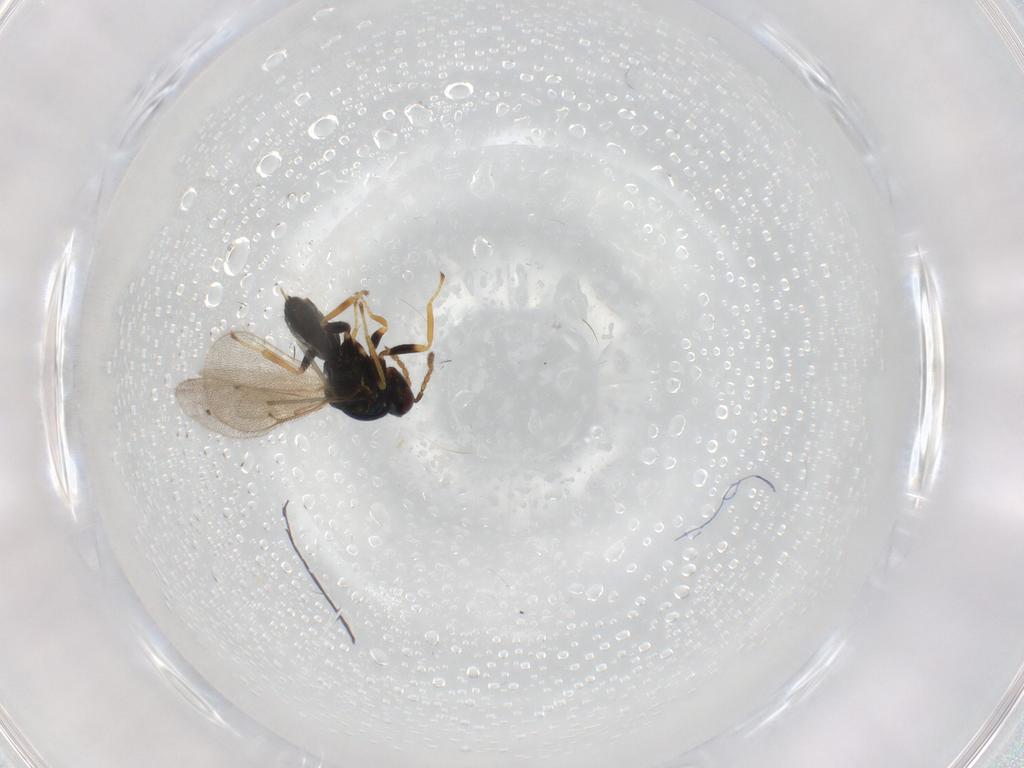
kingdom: Animalia
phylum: Arthropoda
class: Insecta
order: Hymenoptera
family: Eulophidae
